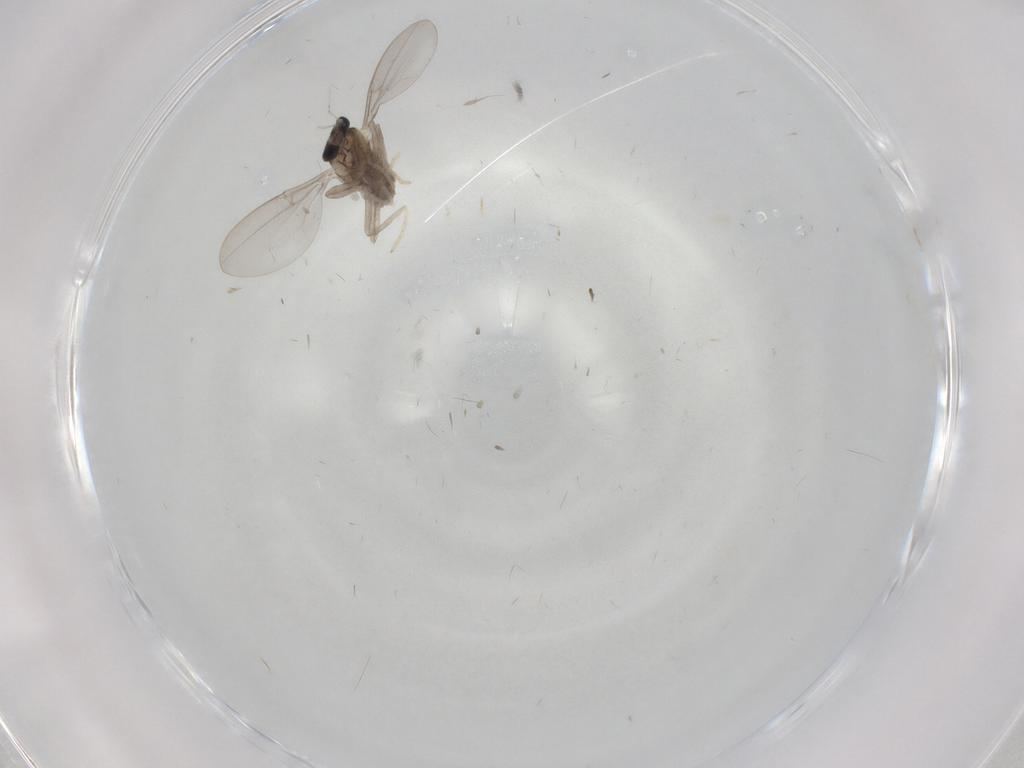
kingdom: Animalia
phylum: Arthropoda
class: Insecta
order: Diptera
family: Cecidomyiidae
